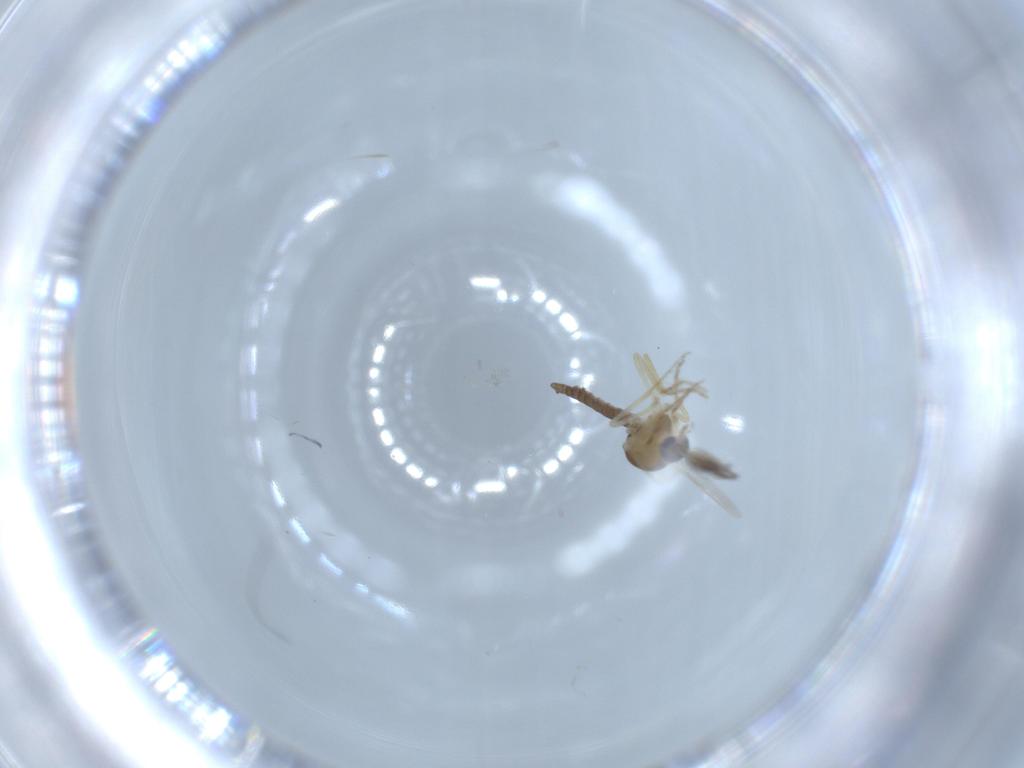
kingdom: Animalia
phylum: Arthropoda
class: Insecta
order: Diptera
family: Ceratopogonidae
